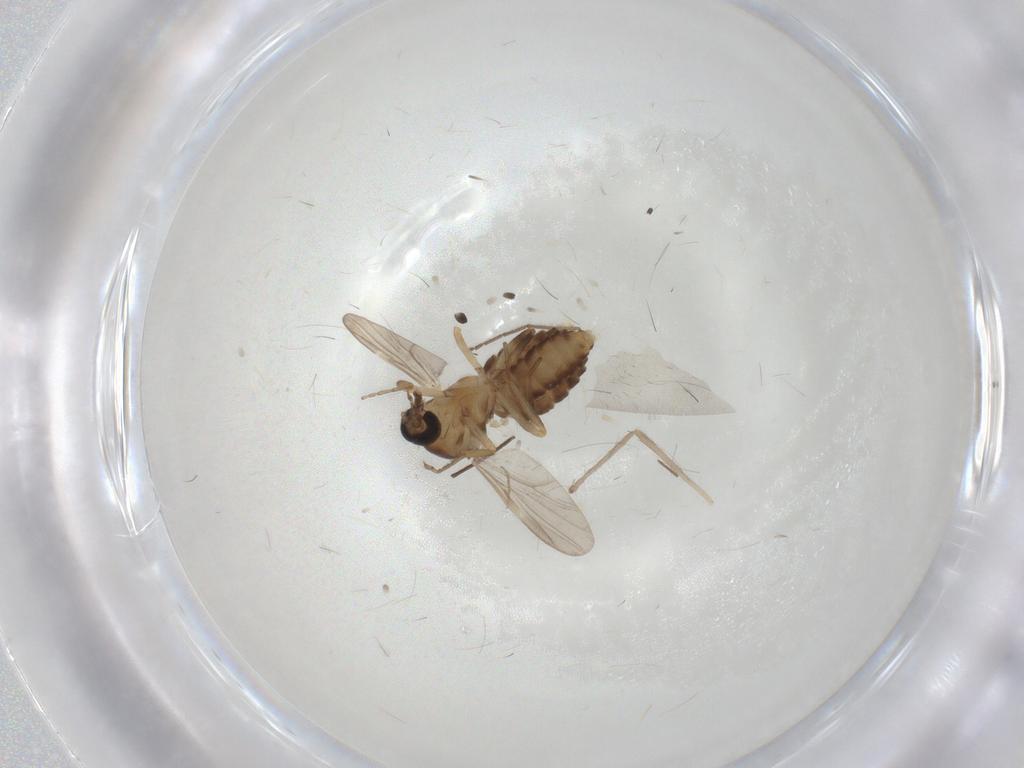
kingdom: Animalia
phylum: Arthropoda
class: Insecta
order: Diptera
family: Ceratopogonidae
